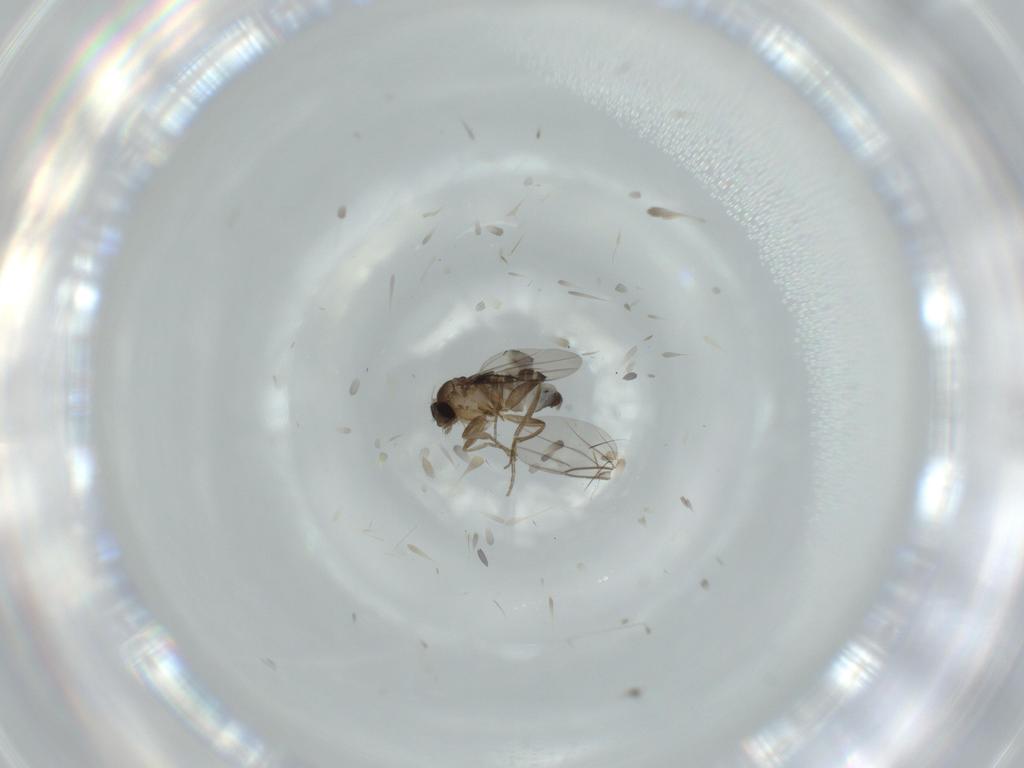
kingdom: Animalia
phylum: Arthropoda
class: Insecta
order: Diptera
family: Phoridae
